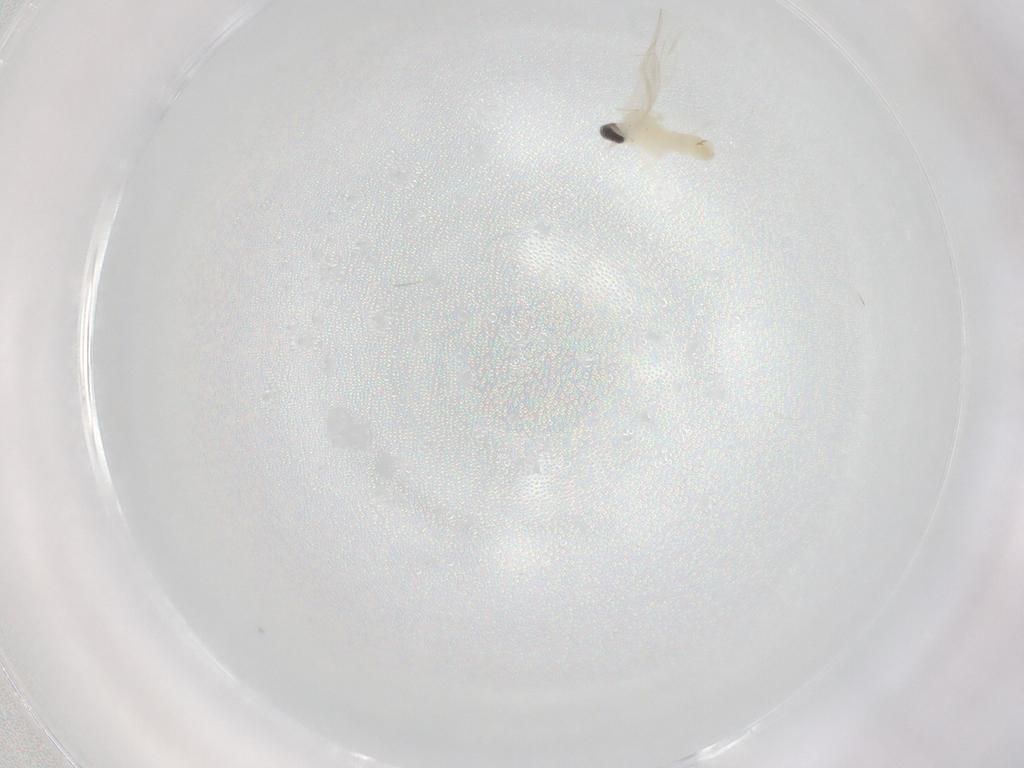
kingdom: Animalia
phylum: Arthropoda
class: Insecta
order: Diptera
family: Cecidomyiidae
